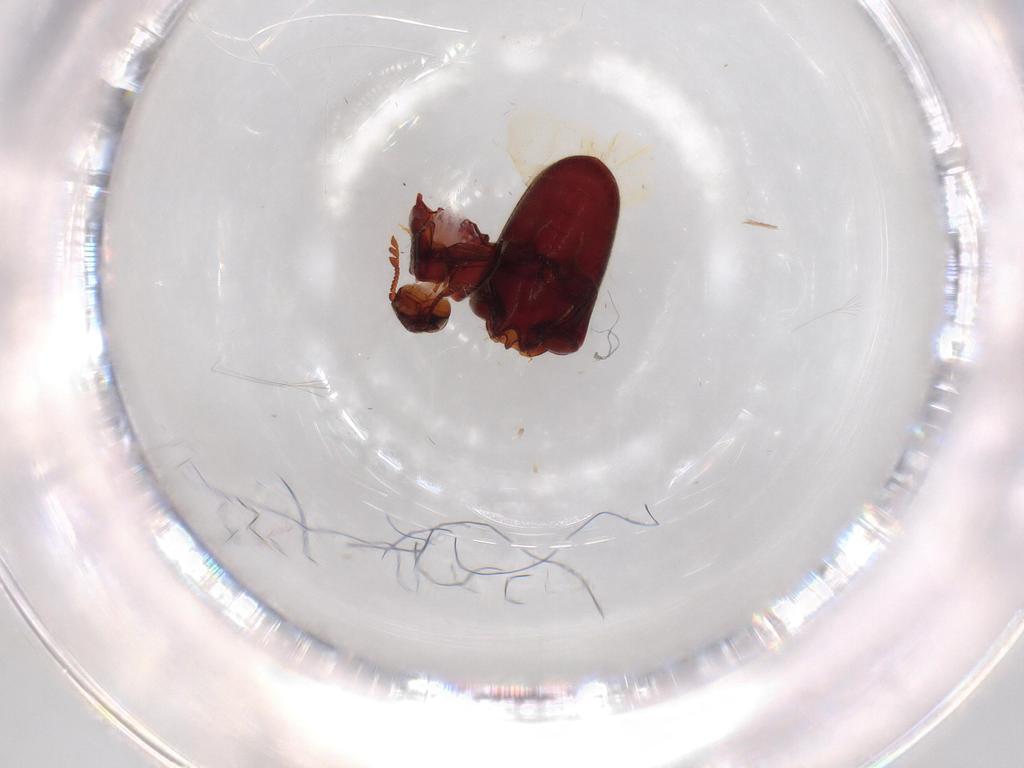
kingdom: Animalia
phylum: Arthropoda
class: Insecta
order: Coleoptera
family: Throscidae
